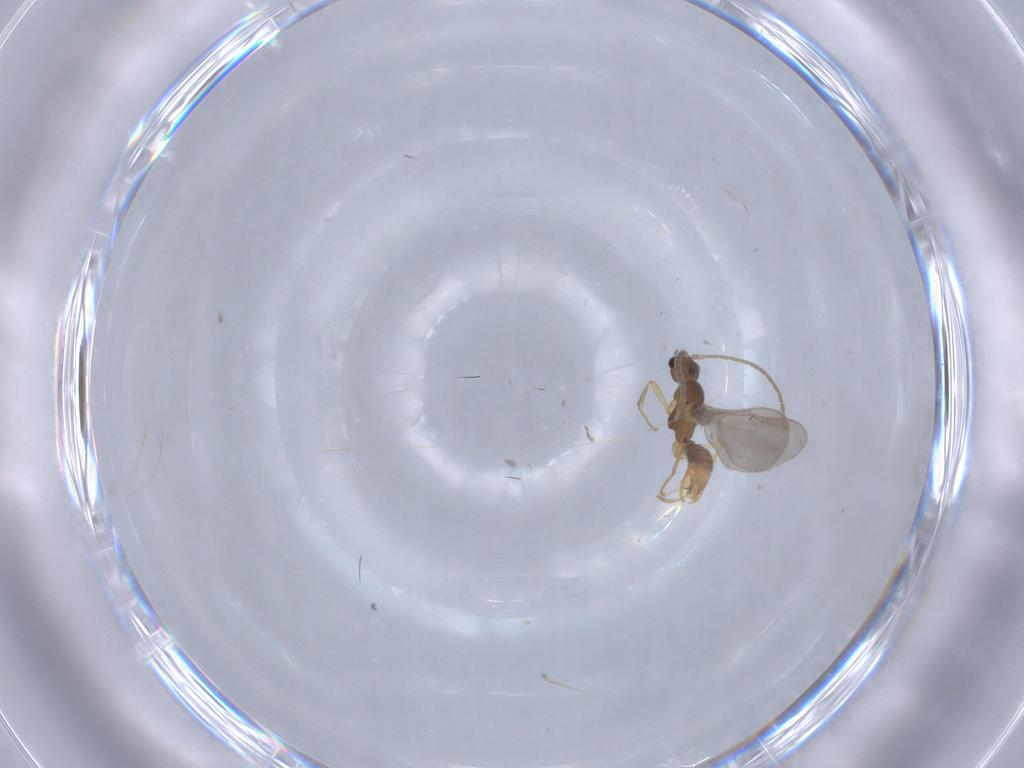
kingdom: Animalia
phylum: Arthropoda
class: Insecta
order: Hymenoptera
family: Formicidae
